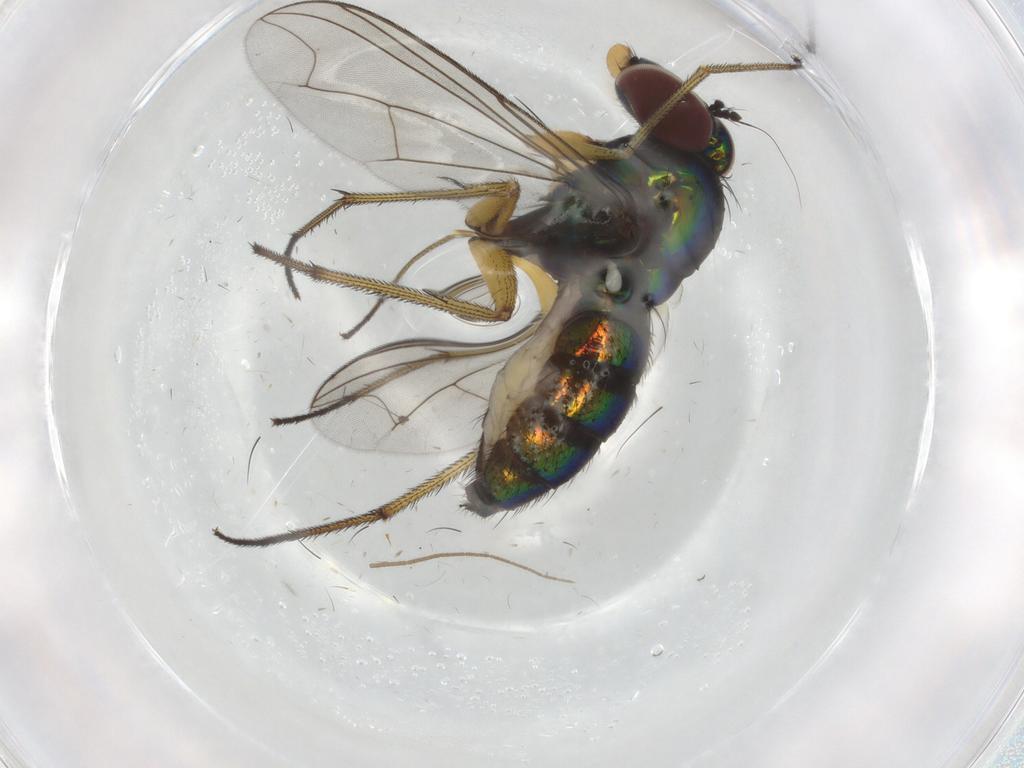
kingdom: Animalia
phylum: Arthropoda
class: Insecta
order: Diptera
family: Dolichopodidae
